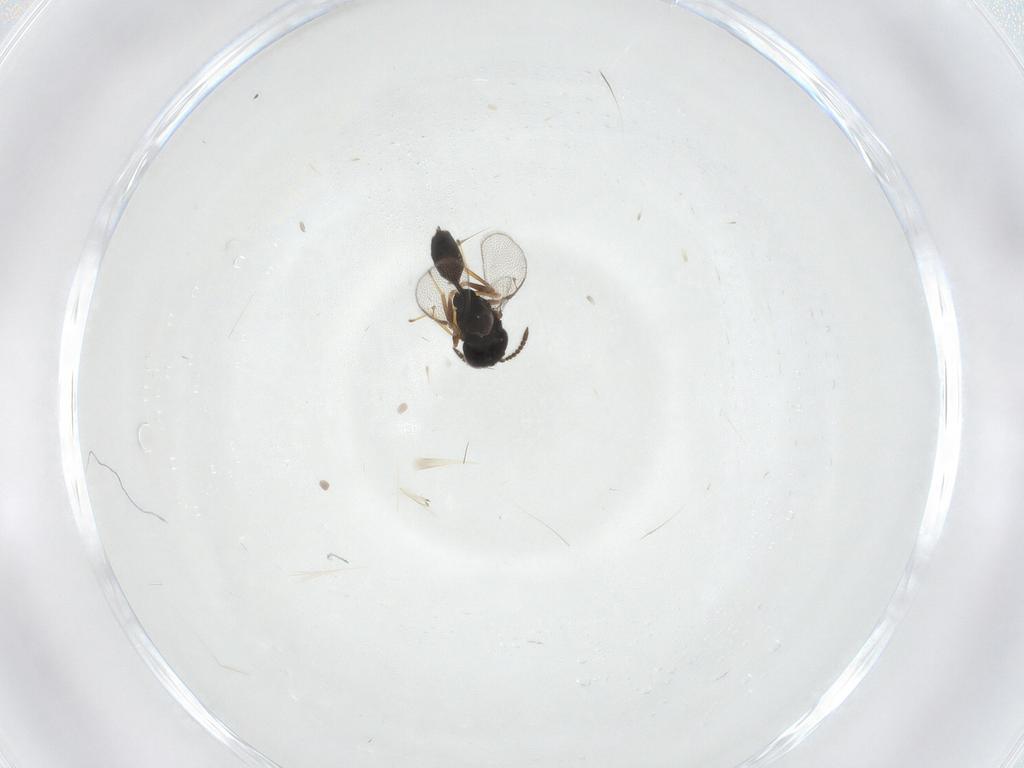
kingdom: Animalia
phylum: Arthropoda
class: Insecta
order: Hymenoptera
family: Pteromalidae
